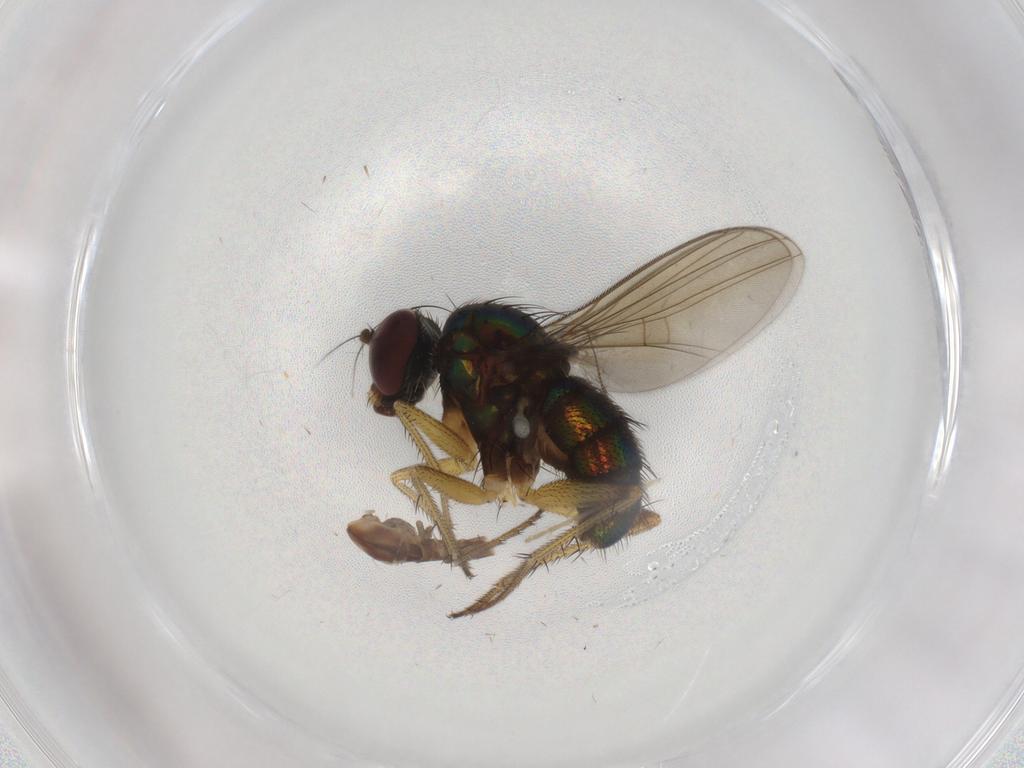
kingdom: Animalia
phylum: Arthropoda
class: Insecta
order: Diptera
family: Dolichopodidae
